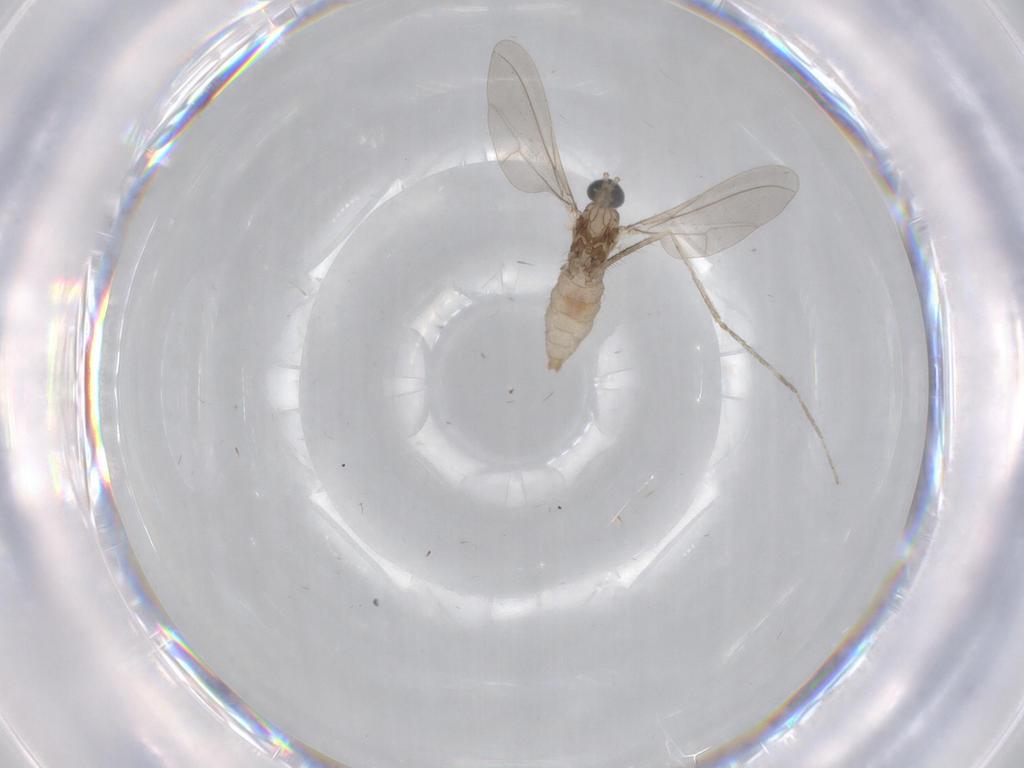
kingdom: Animalia
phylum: Arthropoda
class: Insecta
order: Diptera
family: Cecidomyiidae
